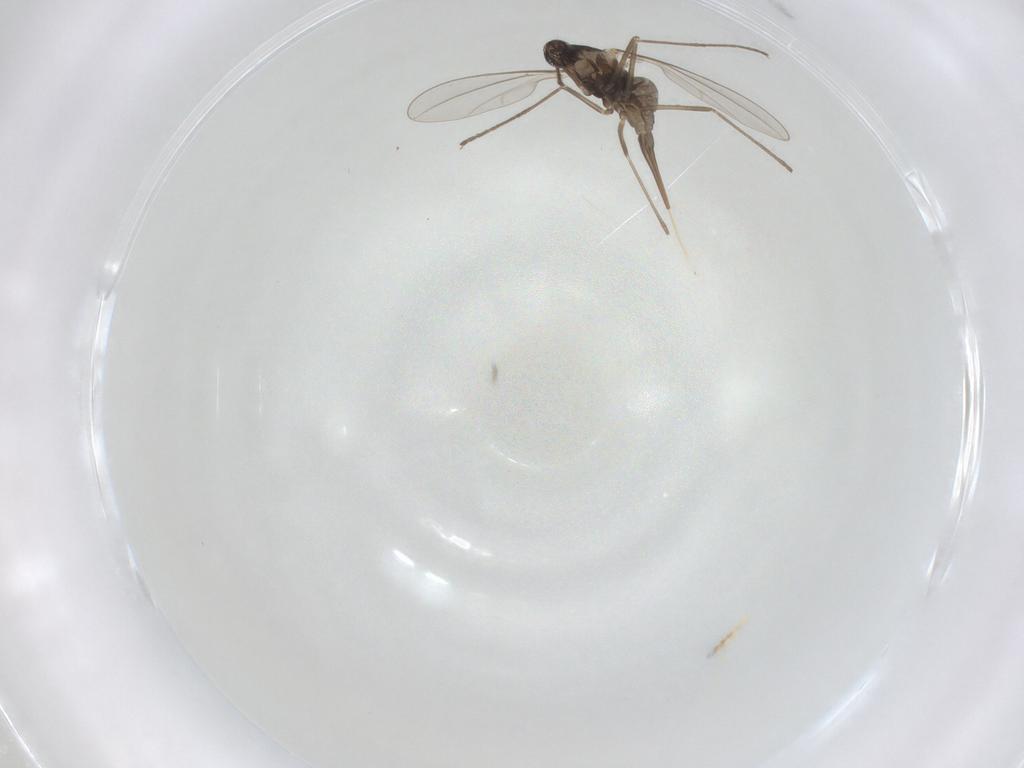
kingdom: Animalia
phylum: Arthropoda
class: Insecta
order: Diptera
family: Cecidomyiidae
